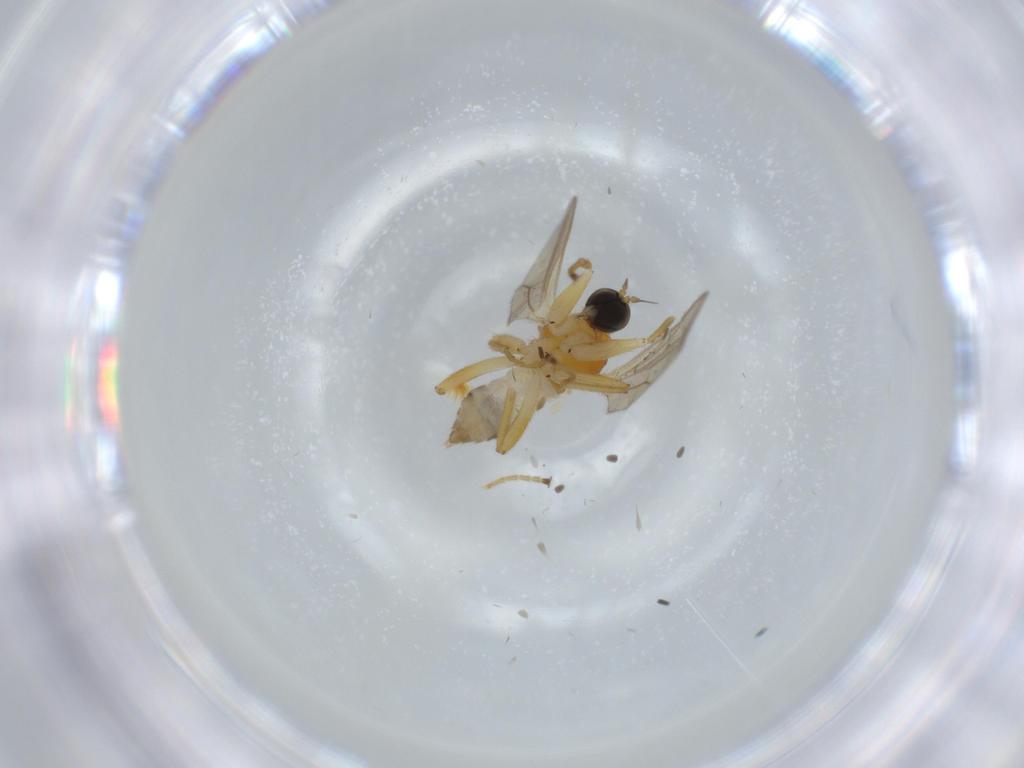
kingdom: Animalia
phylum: Arthropoda
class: Insecta
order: Diptera
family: Hybotidae
